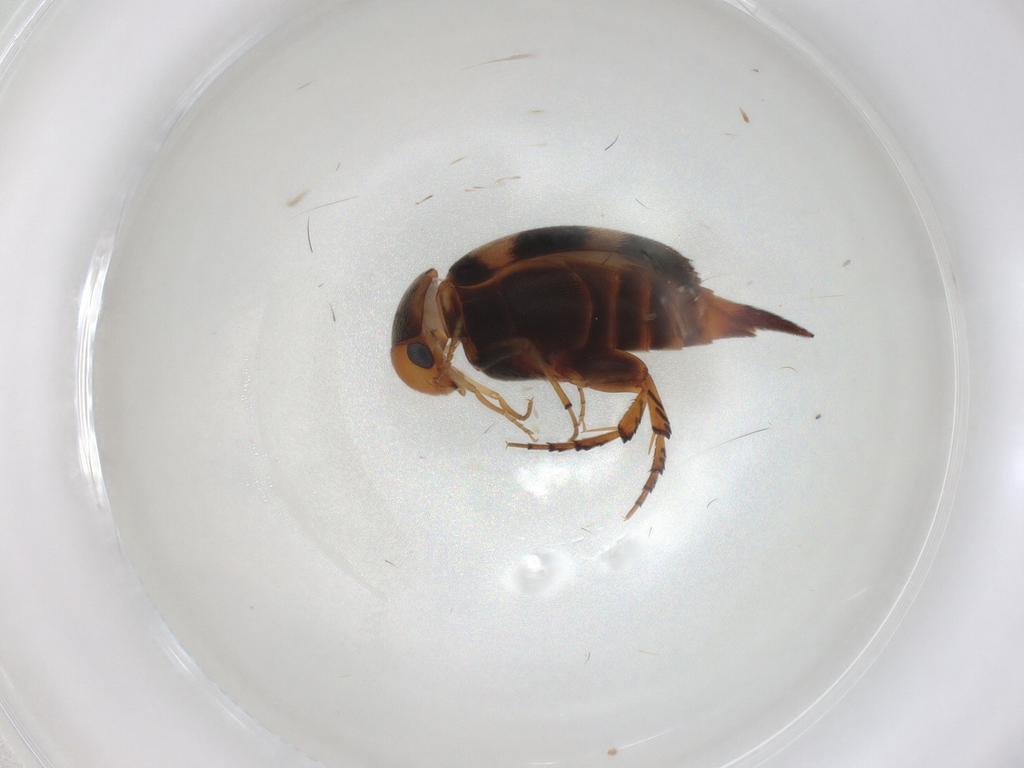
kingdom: Animalia
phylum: Arthropoda
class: Insecta
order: Coleoptera
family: Mordellidae
